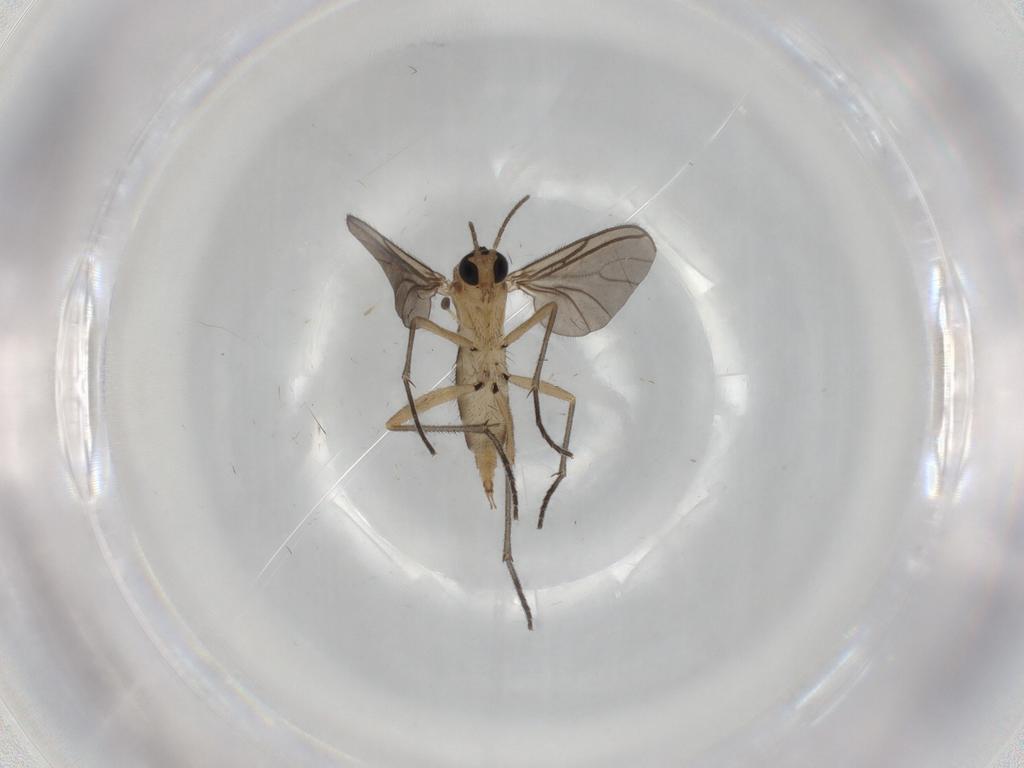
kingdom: Animalia
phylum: Arthropoda
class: Insecta
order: Diptera
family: Sciaridae
